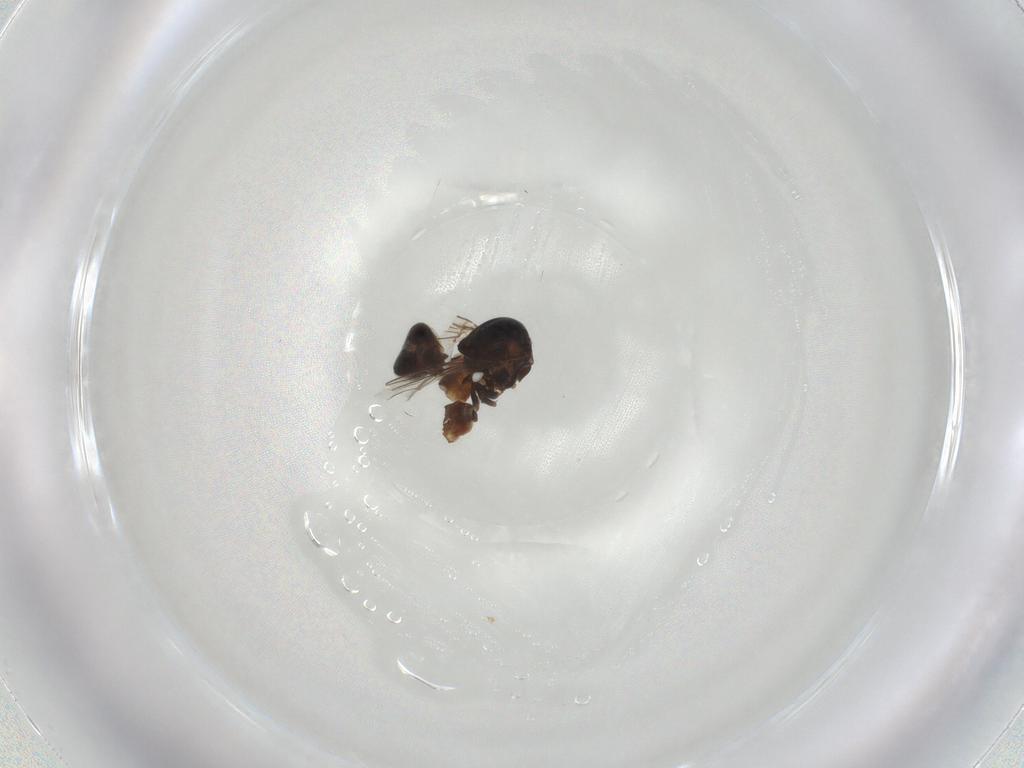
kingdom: Animalia
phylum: Arthropoda
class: Insecta
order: Diptera
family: Chloropidae
